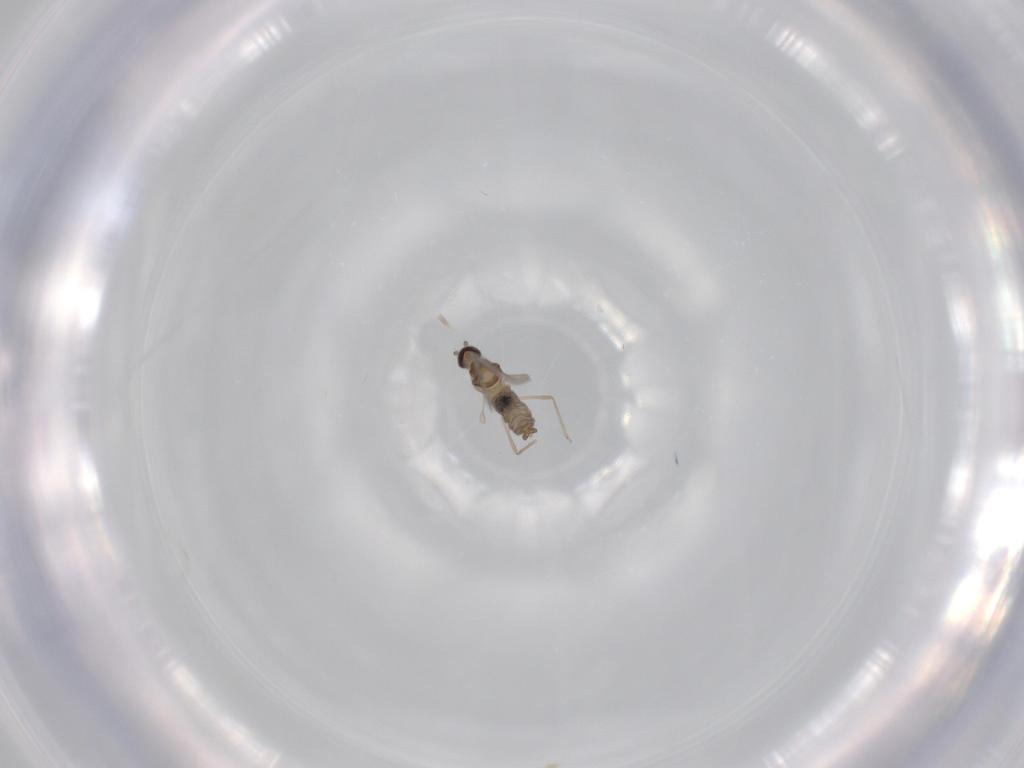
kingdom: Animalia
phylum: Arthropoda
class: Insecta
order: Diptera
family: Cecidomyiidae
